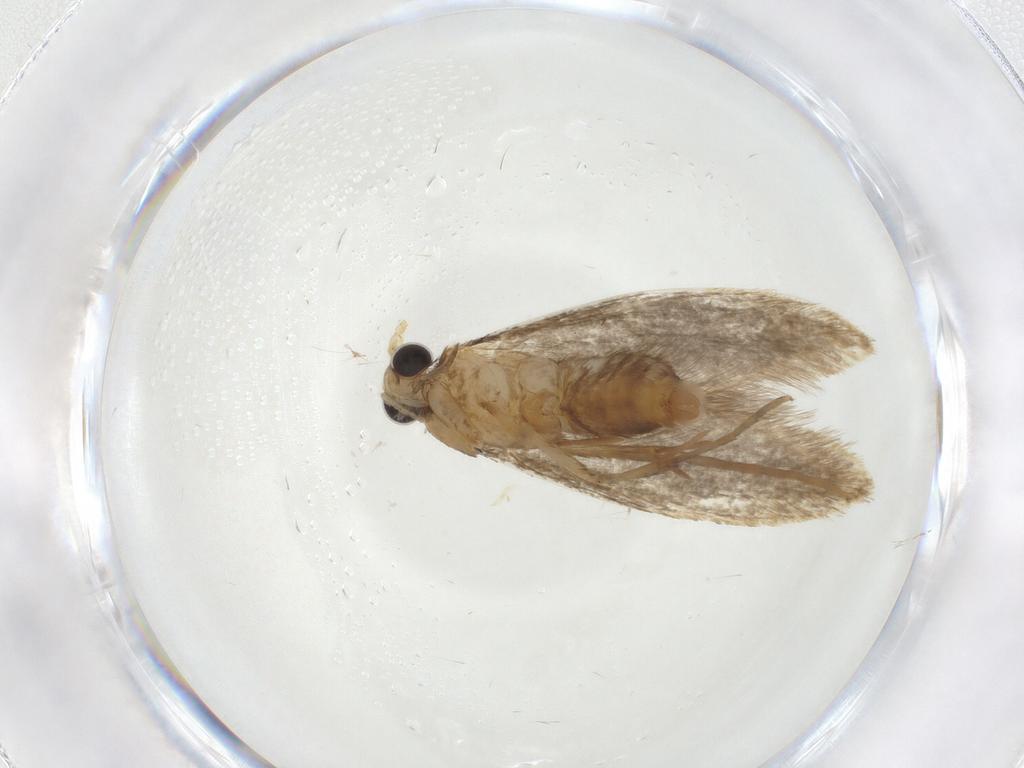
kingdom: Animalia
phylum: Arthropoda
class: Insecta
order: Lepidoptera
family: Tineidae
